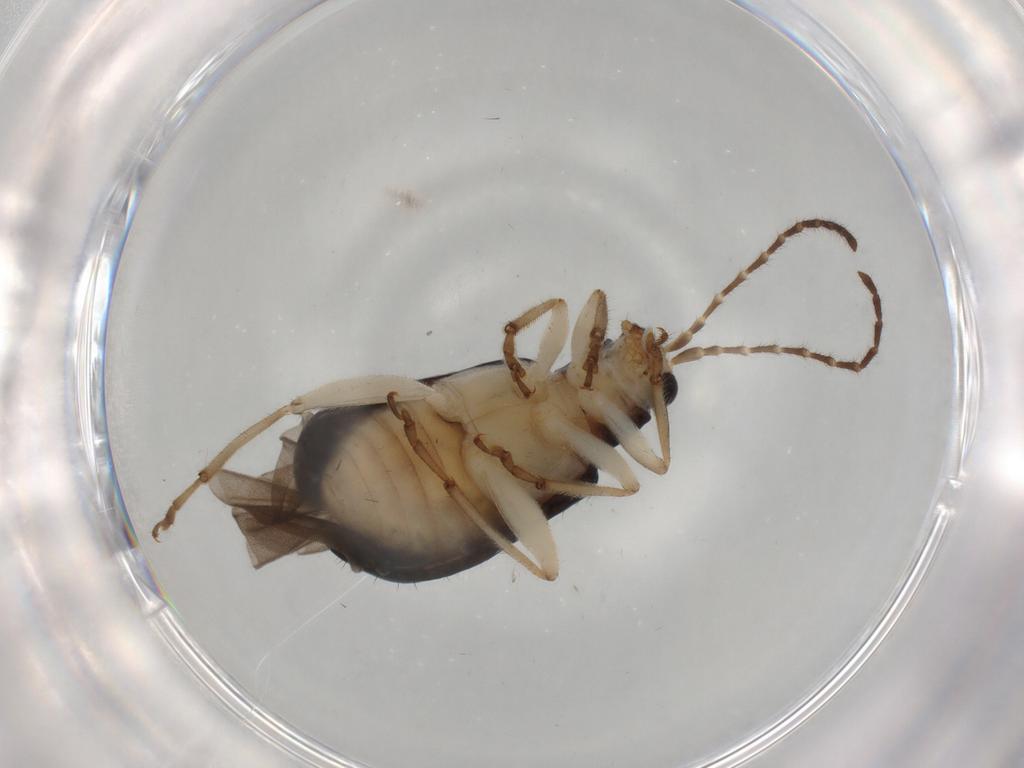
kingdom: Animalia
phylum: Arthropoda
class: Insecta
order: Coleoptera
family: Chrysomelidae
